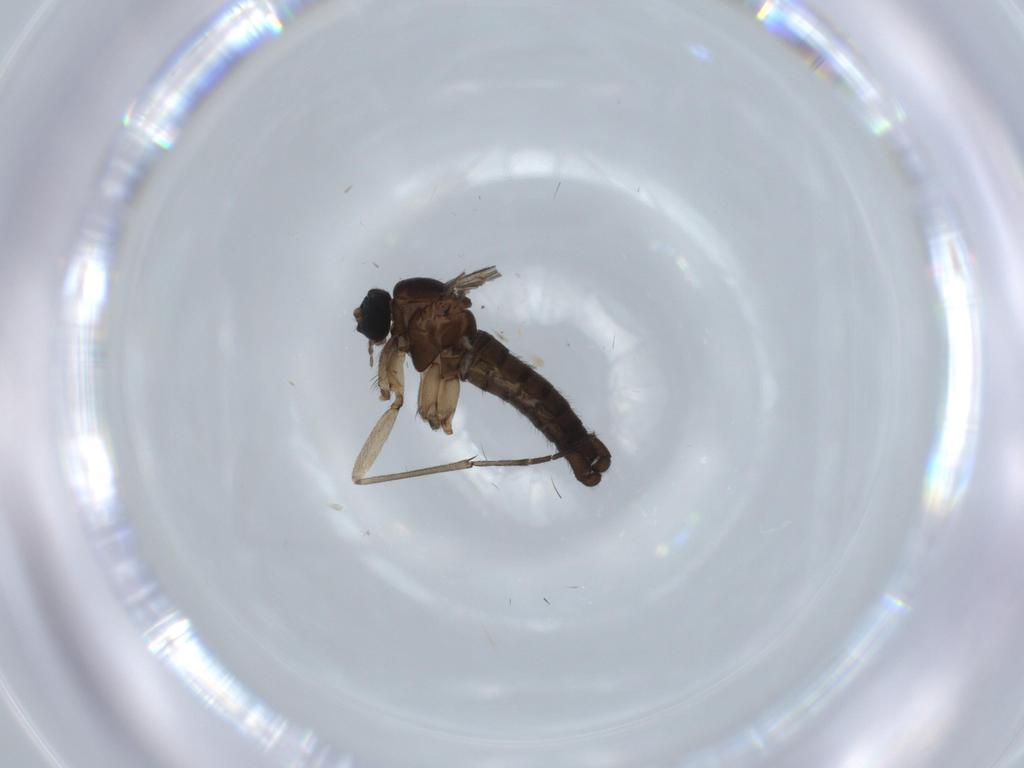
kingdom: Animalia
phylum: Arthropoda
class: Insecta
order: Diptera
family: Sciaridae
